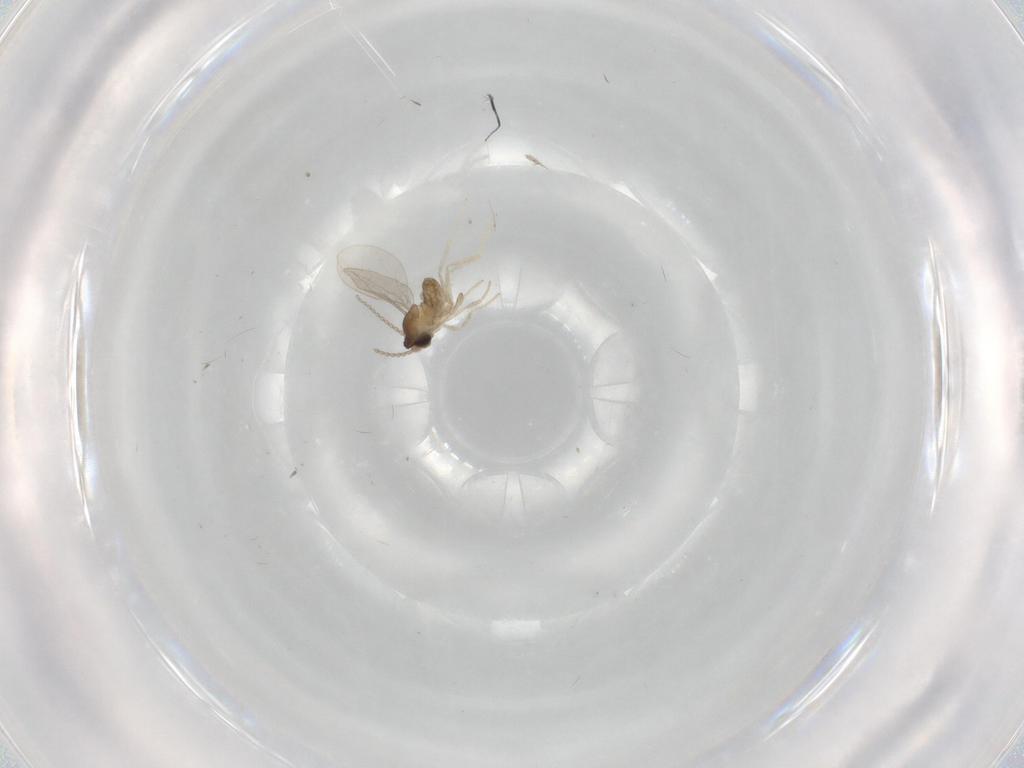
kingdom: Animalia
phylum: Arthropoda
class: Insecta
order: Diptera
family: Cecidomyiidae
